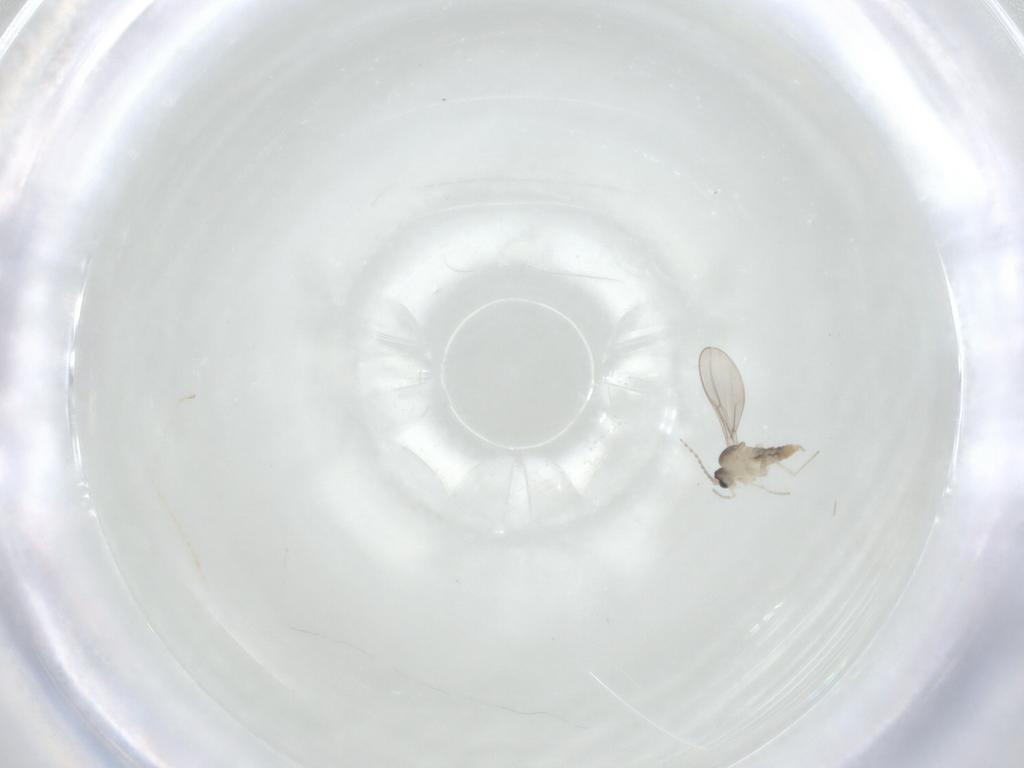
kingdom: Animalia
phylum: Arthropoda
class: Insecta
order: Diptera
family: Cecidomyiidae
